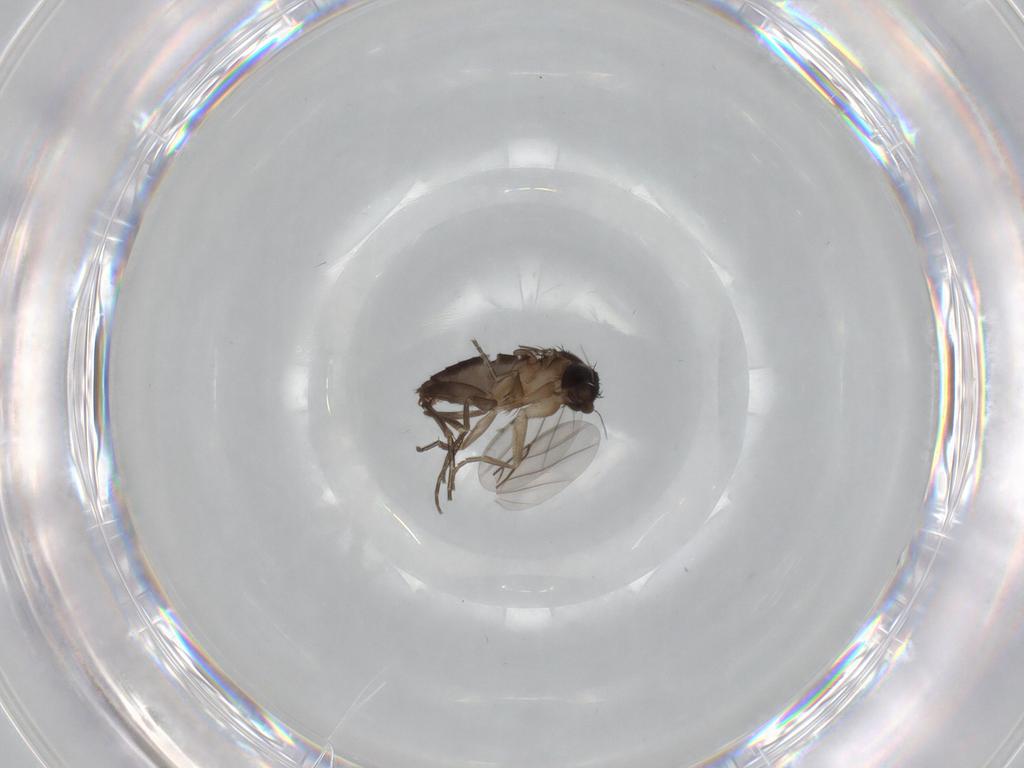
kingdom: Animalia
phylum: Arthropoda
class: Insecta
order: Diptera
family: Phoridae
